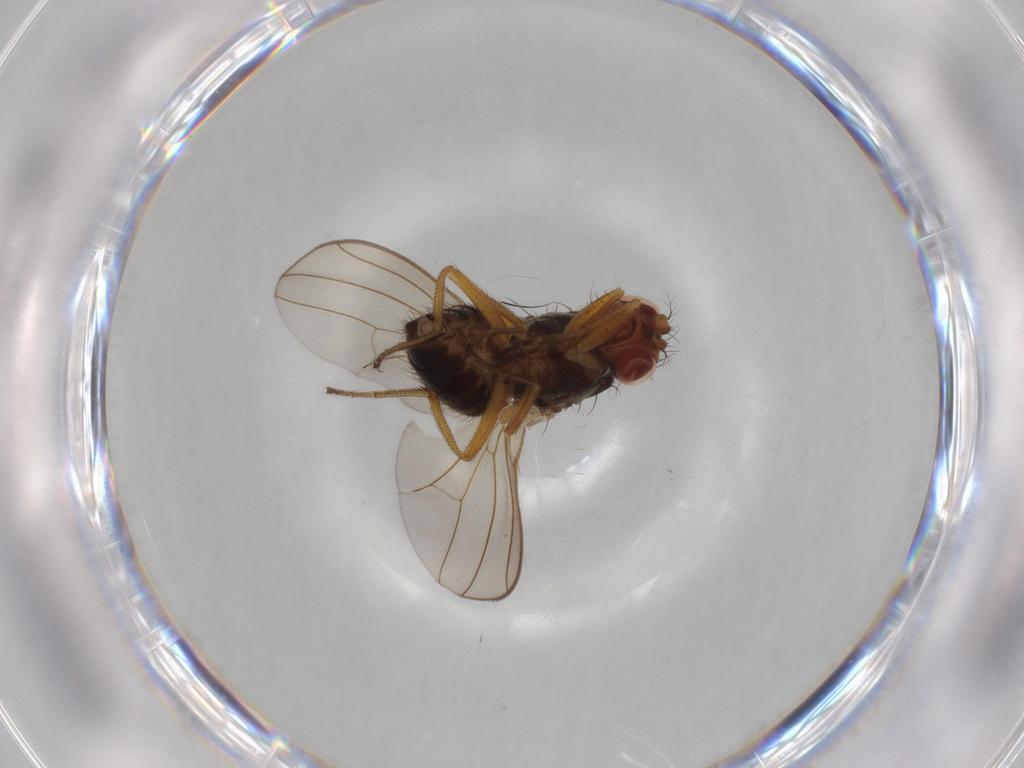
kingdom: Animalia
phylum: Arthropoda
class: Insecta
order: Diptera
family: Drosophilidae
